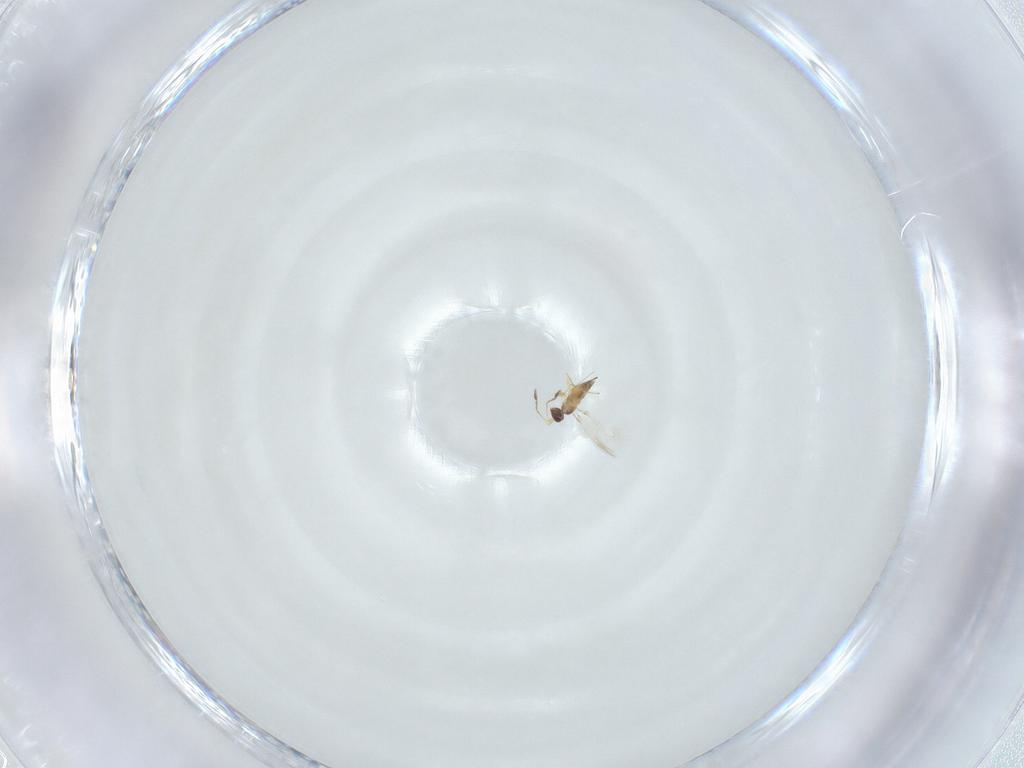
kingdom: Animalia
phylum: Arthropoda
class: Insecta
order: Hymenoptera
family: Mymaridae
